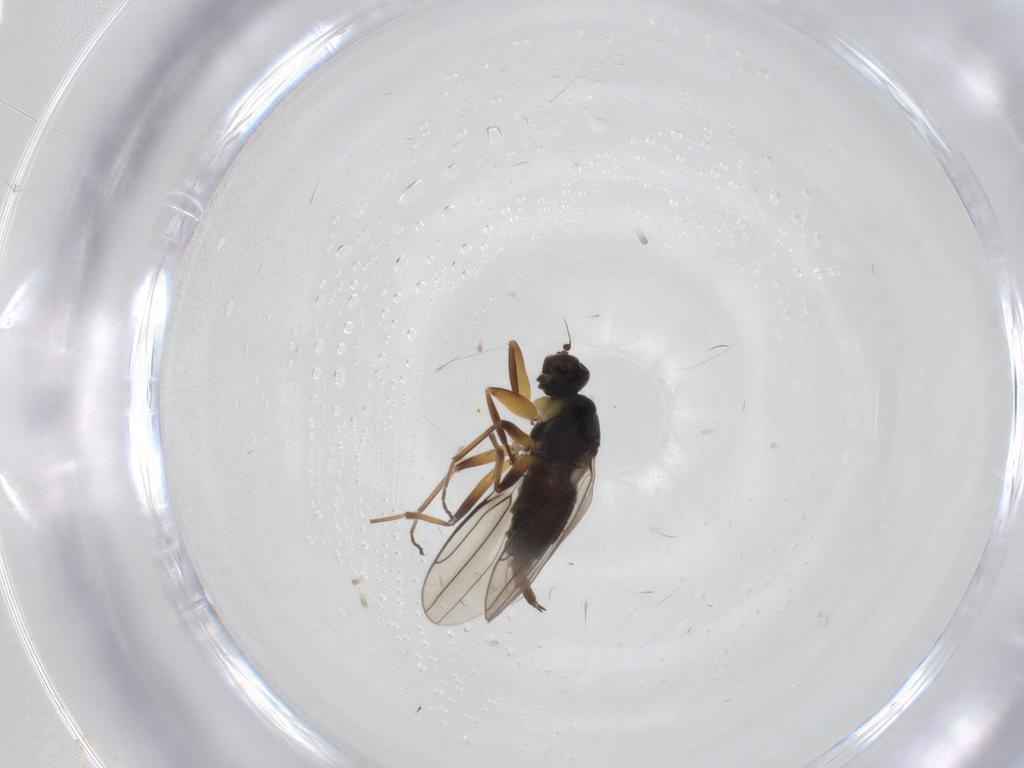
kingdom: Animalia
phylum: Arthropoda
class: Insecta
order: Diptera
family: Hybotidae
